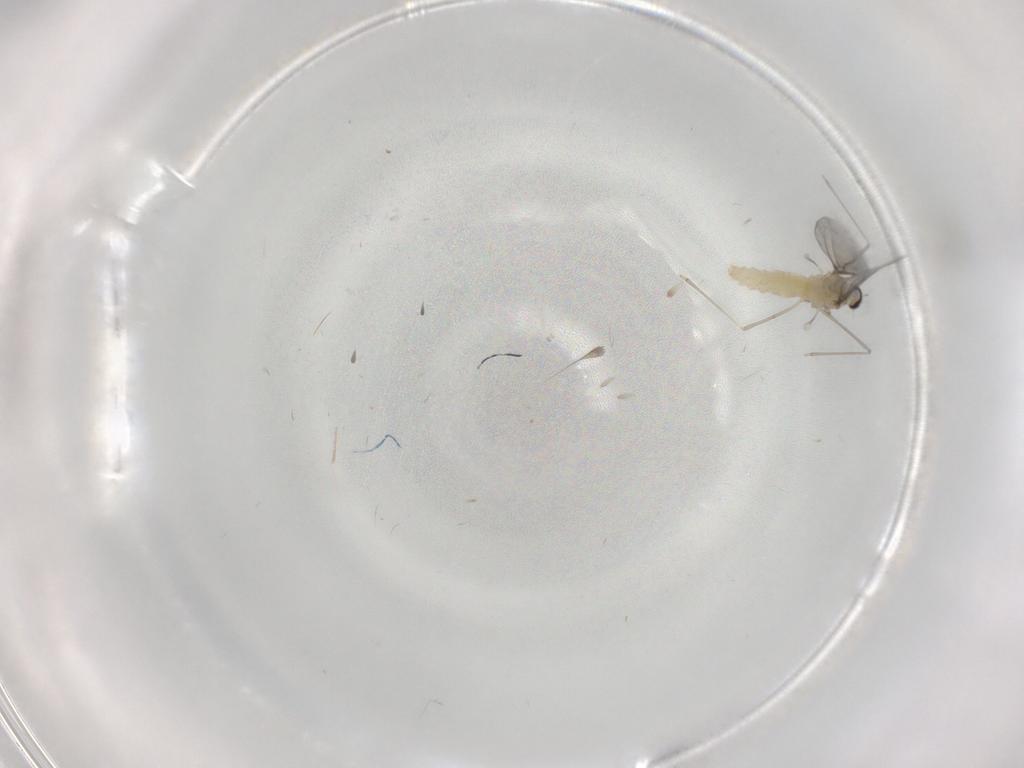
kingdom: Animalia
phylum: Arthropoda
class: Insecta
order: Diptera
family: Cecidomyiidae
